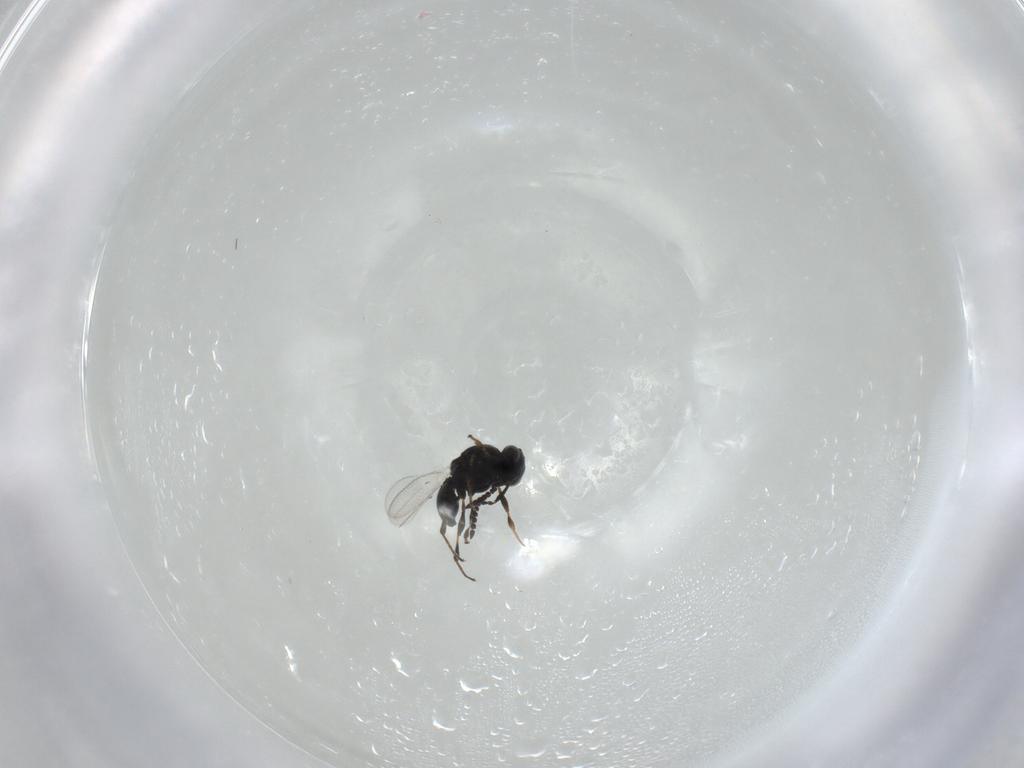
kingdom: Animalia
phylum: Arthropoda
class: Insecta
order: Hymenoptera
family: Platygastridae
